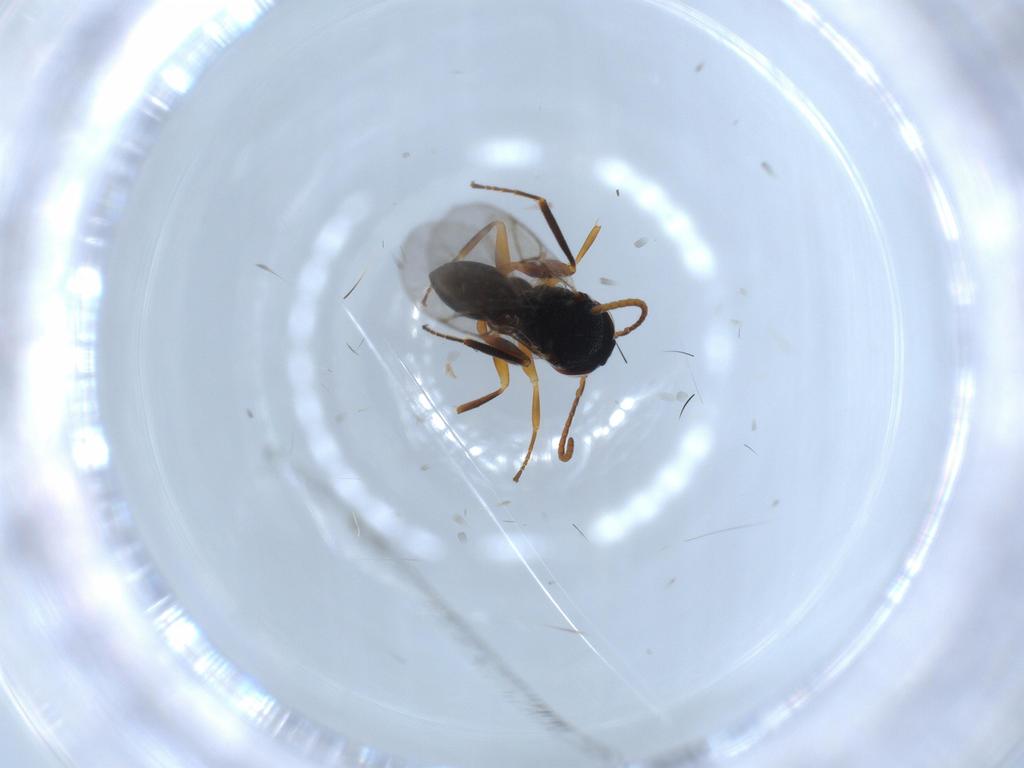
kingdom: Animalia
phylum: Arthropoda
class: Insecta
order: Hymenoptera
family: Cynipidae
